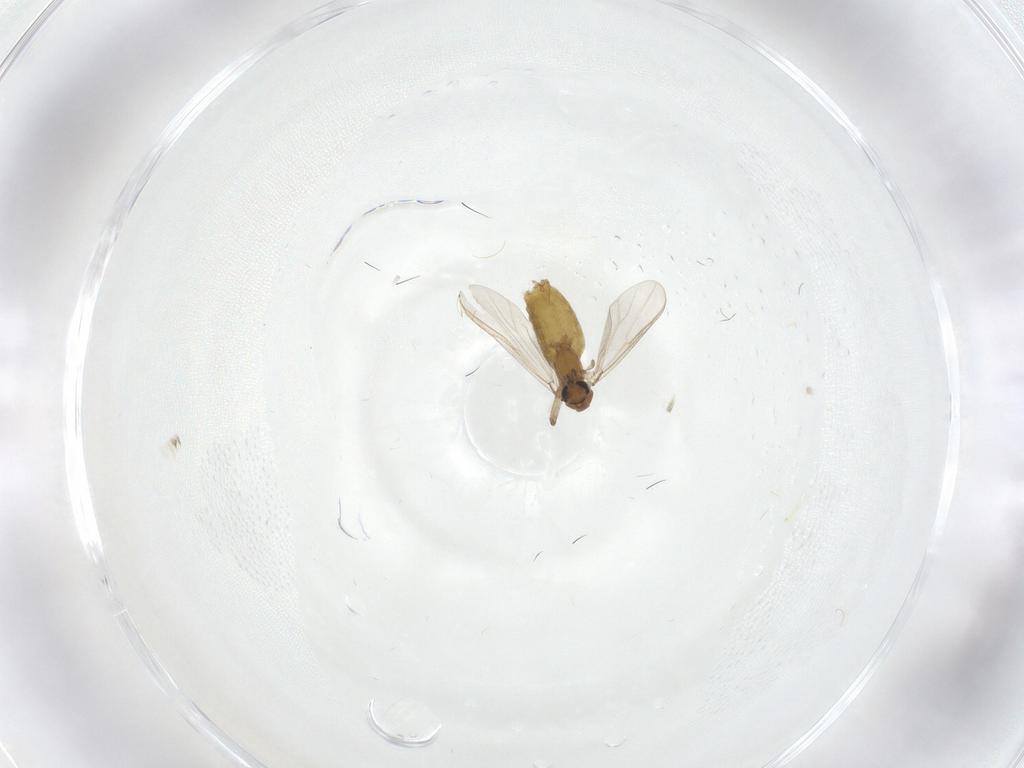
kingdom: Animalia
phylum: Arthropoda
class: Insecta
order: Diptera
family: Chironomidae
